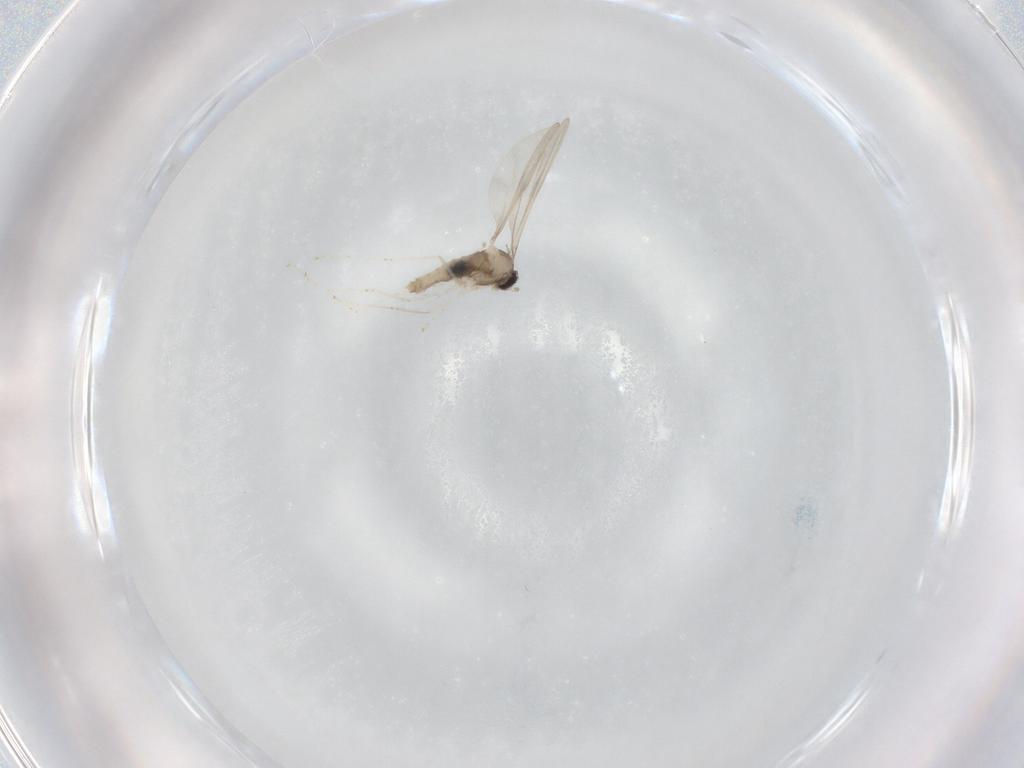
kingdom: Animalia
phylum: Arthropoda
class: Insecta
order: Diptera
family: Cecidomyiidae
